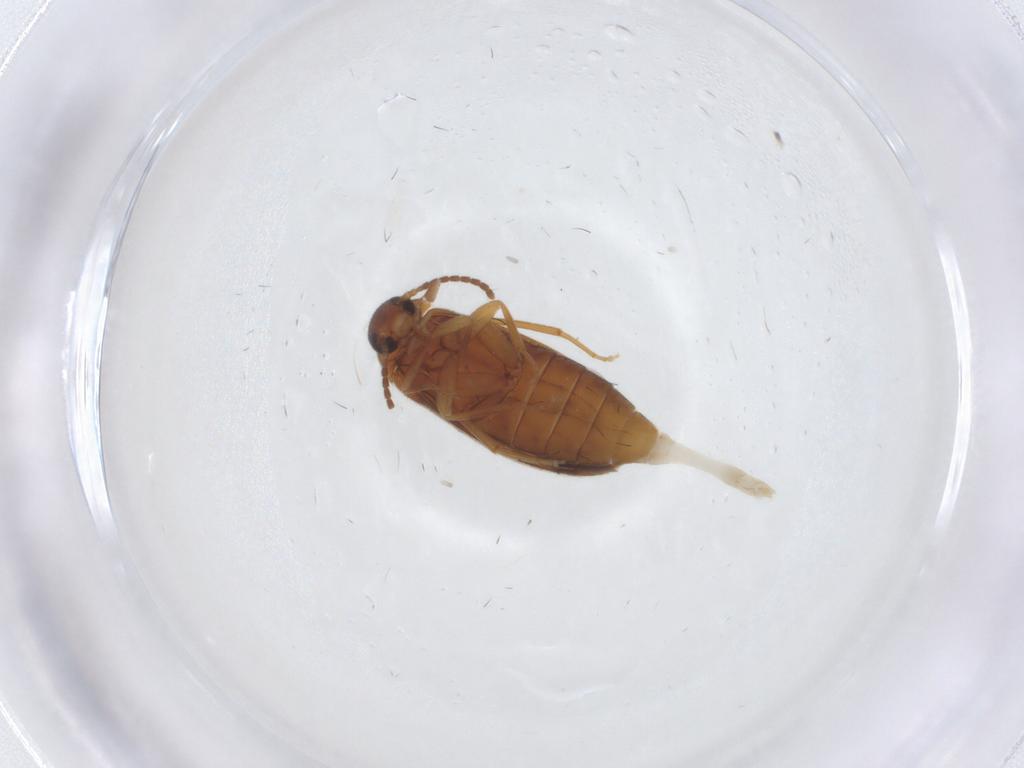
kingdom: Animalia
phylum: Arthropoda
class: Insecta
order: Coleoptera
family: Scraptiidae
